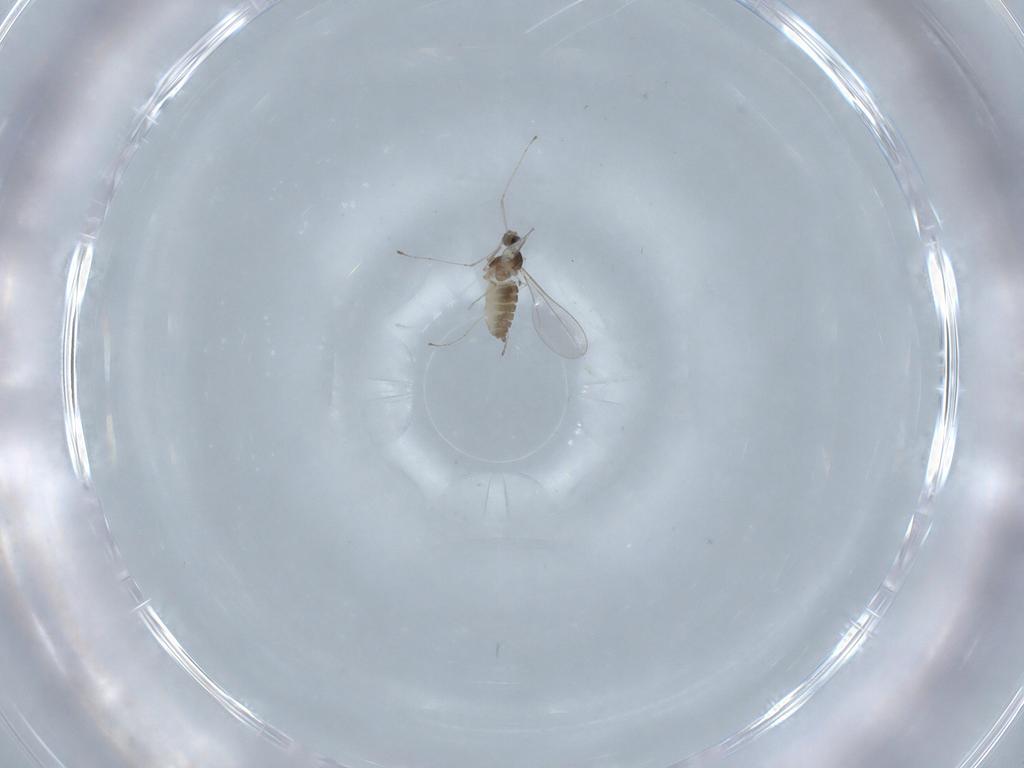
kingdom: Animalia
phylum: Arthropoda
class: Insecta
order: Diptera
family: Cecidomyiidae
